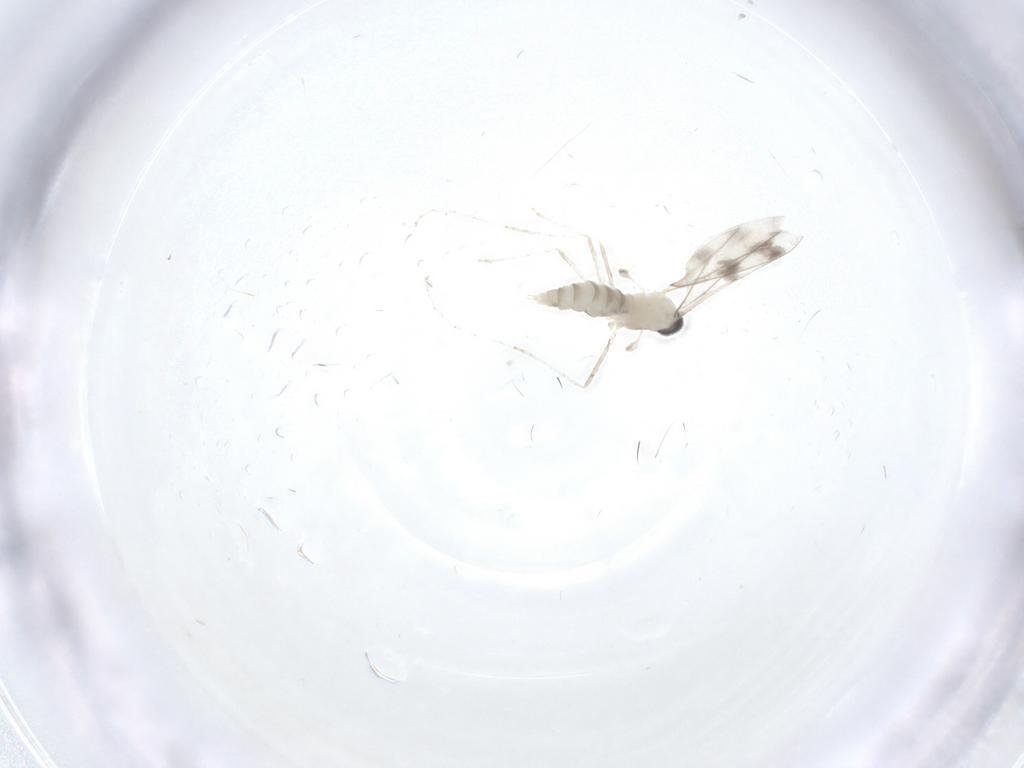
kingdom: Animalia
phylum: Arthropoda
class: Insecta
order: Diptera
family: Cecidomyiidae
